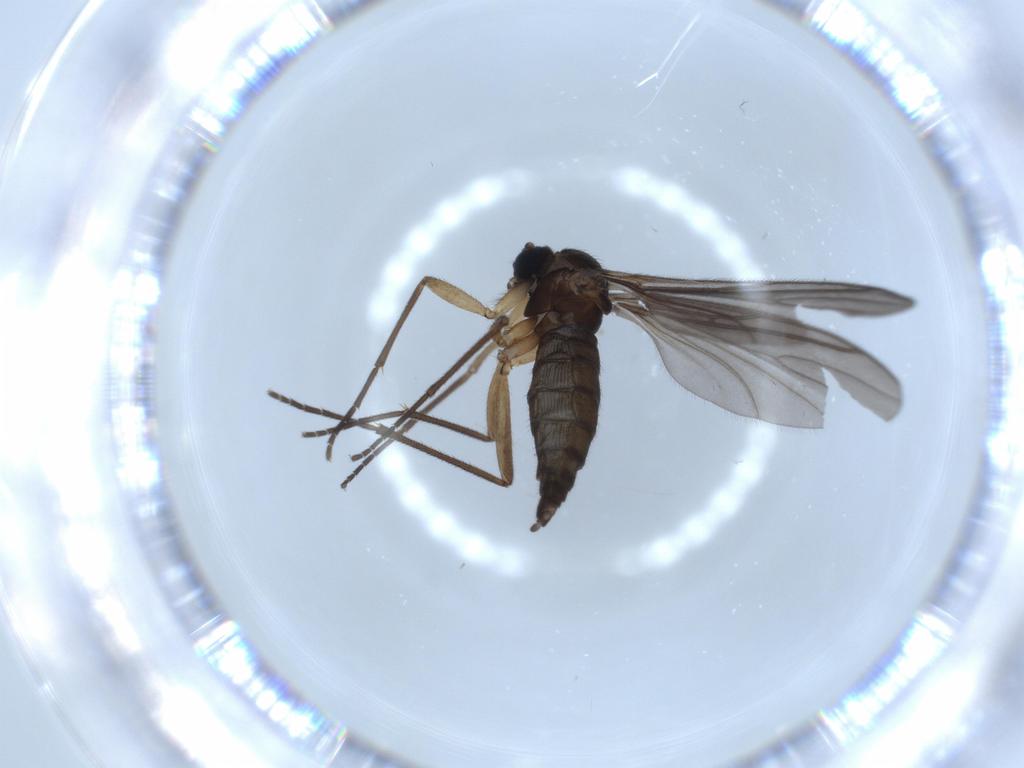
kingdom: Animalia
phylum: Arthropoda
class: Insecta
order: Diptera
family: Sciaridae
